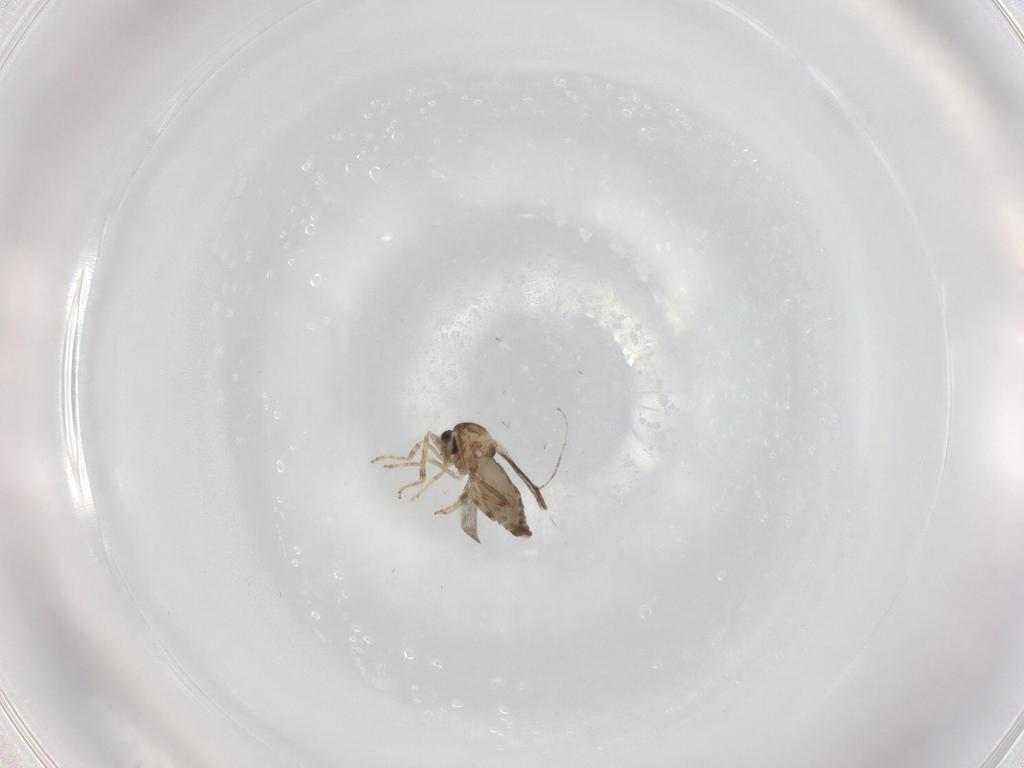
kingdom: Animalia
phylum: Arthropoda
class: Insecta
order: Diptera
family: Ceratopogonidae
